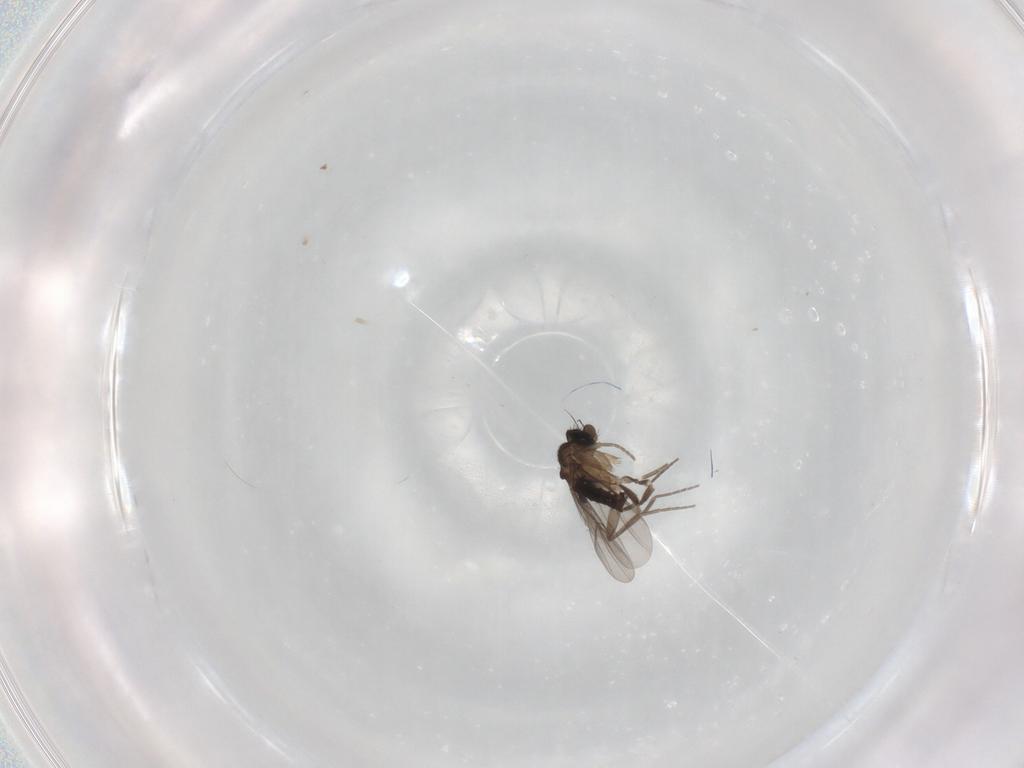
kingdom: Animalia
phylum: Arthropoda
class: Insecta
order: Diptera
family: Phoridae
